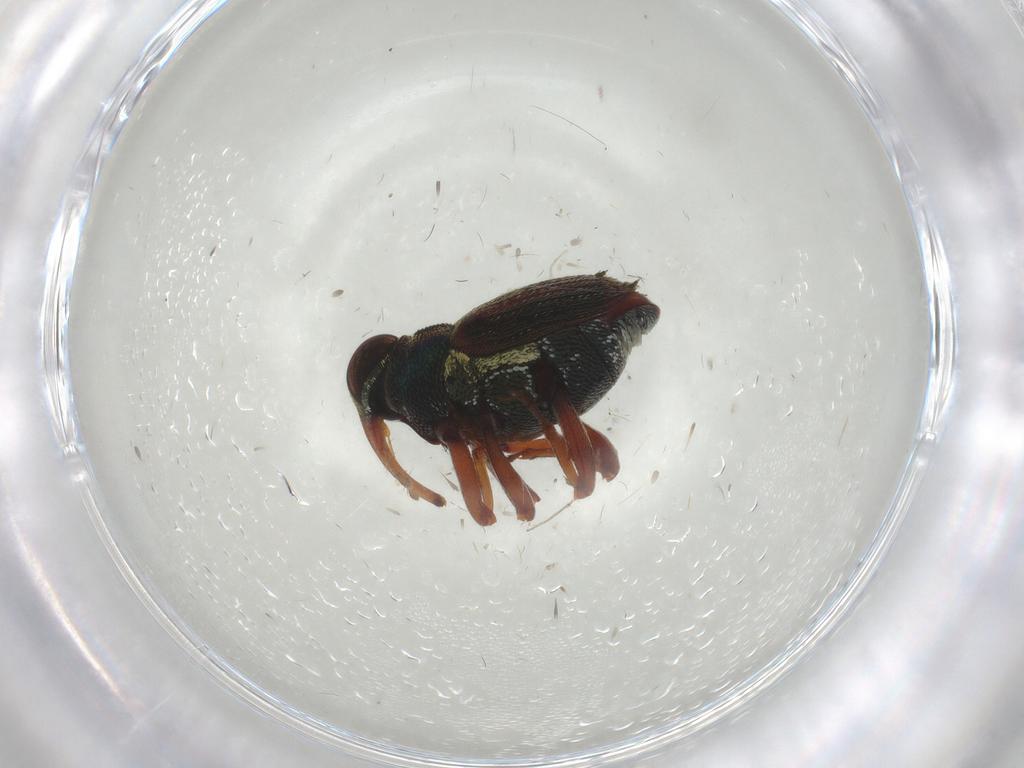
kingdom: Animalia
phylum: Arthropoda
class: Insecta
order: Coleoptera
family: Curculionidae
